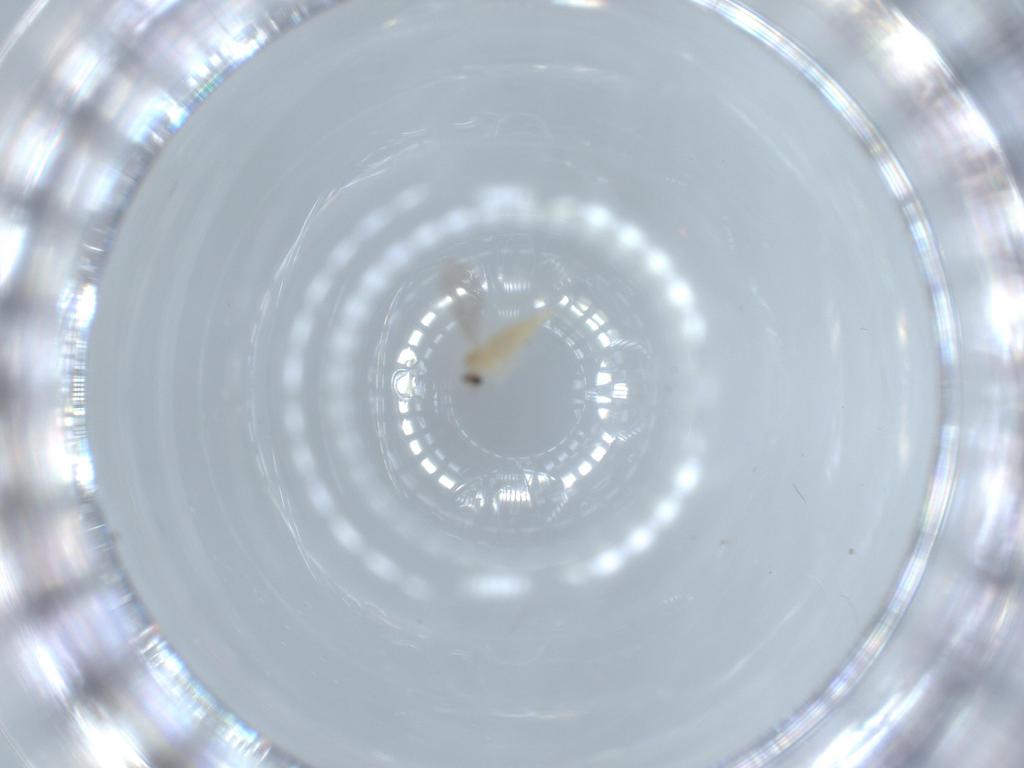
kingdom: Animalia
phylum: Arthropoda
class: Insecta
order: Diptera
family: Cecidomyiidae
